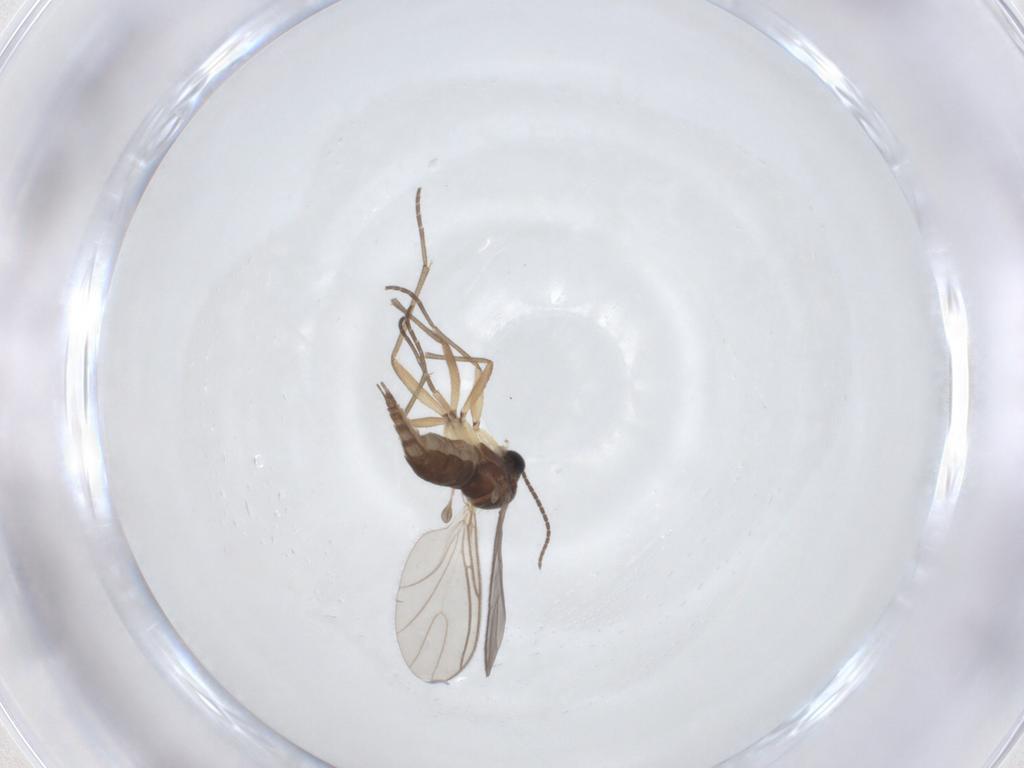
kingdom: Animalia
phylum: Arthropoda
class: Insecta
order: Diptera
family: Sciaridae
